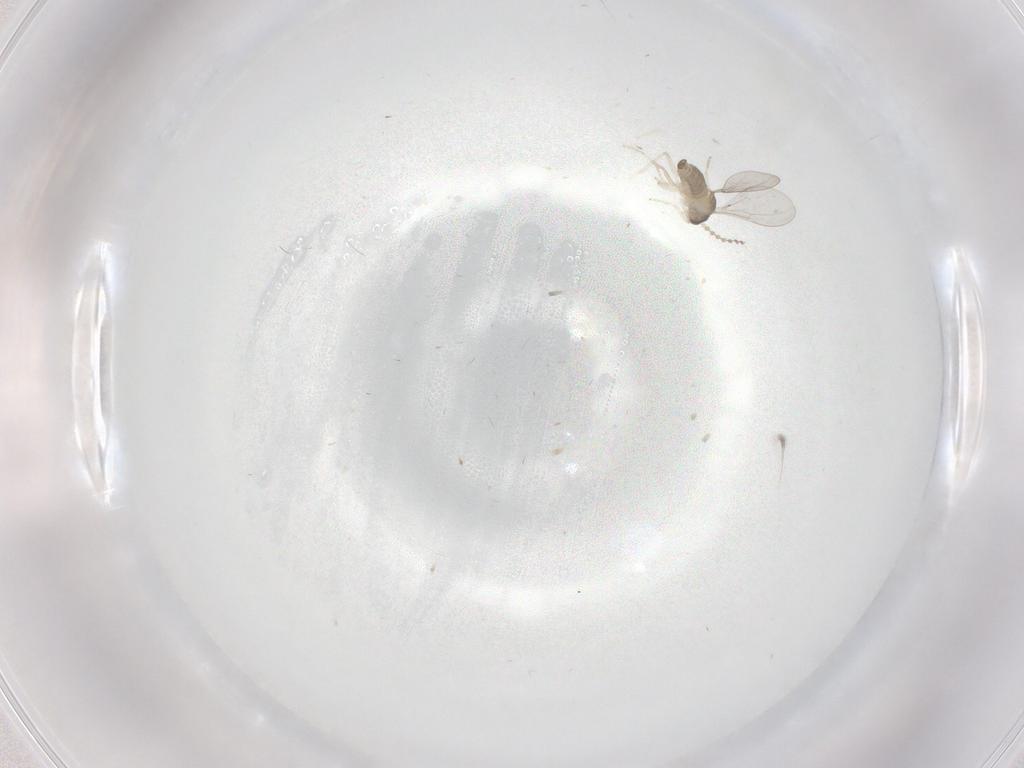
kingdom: Animalia
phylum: Arthropoda
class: Insecta
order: Diptera
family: Cecidomyiidae
